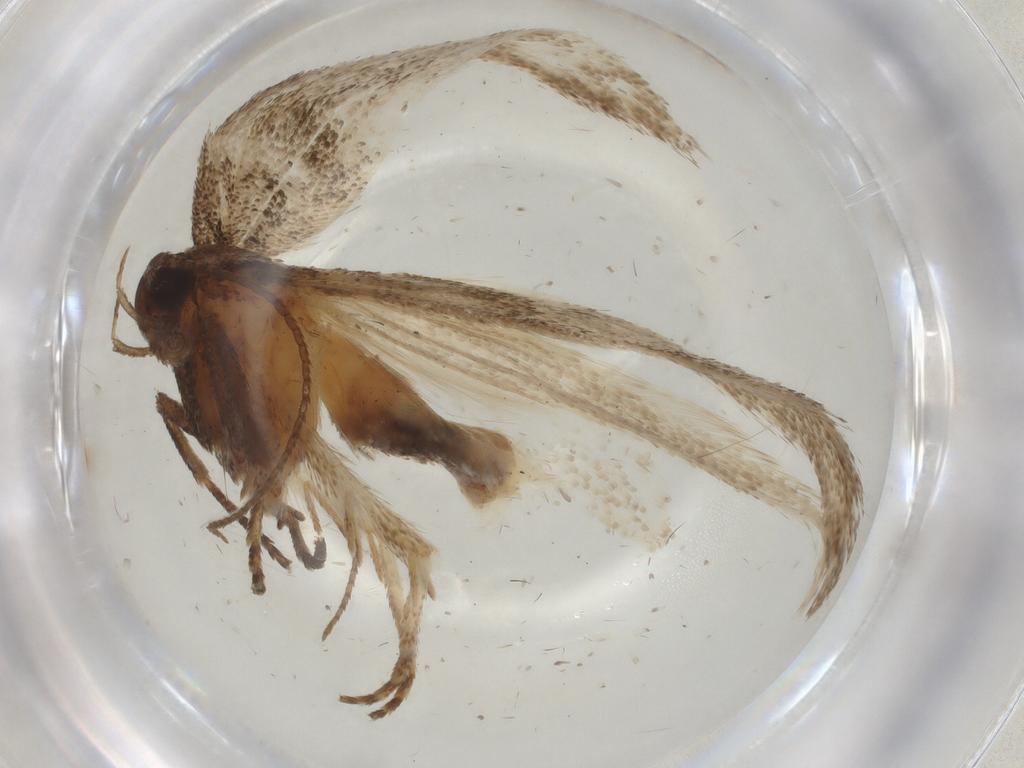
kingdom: Animalia
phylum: Arthropoda
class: Insecta
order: Lepidoptera
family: Cosmopterigidae
